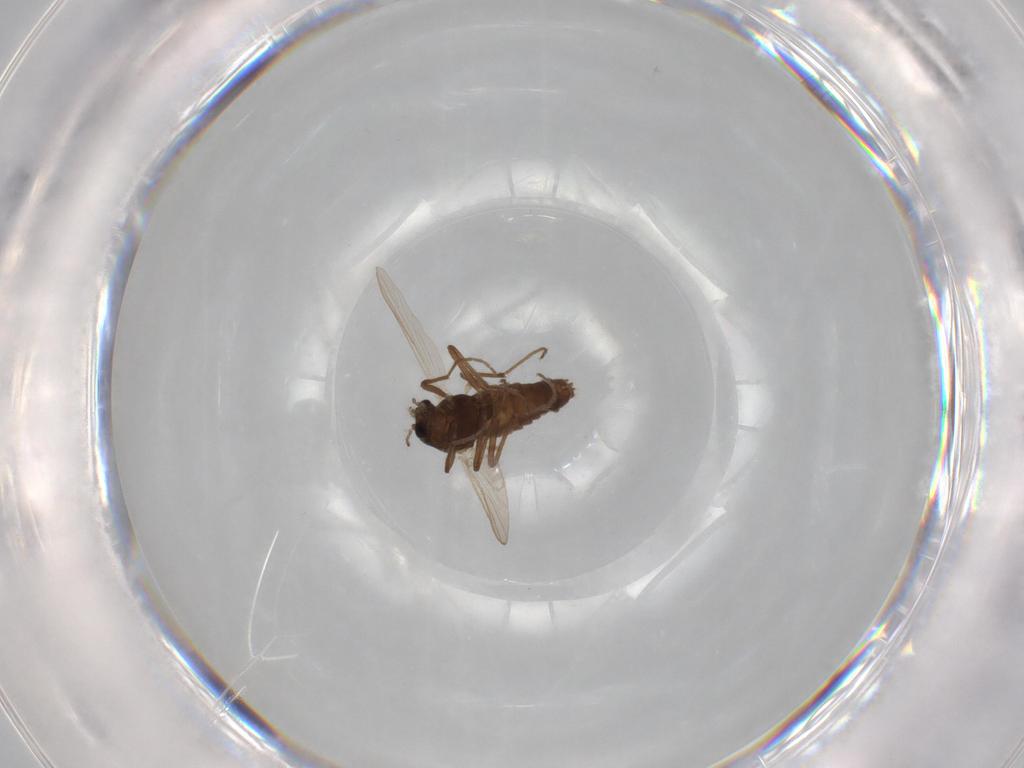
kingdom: Animalia
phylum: Arthropoda
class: Insecta
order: Diptera
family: Chironomidae
